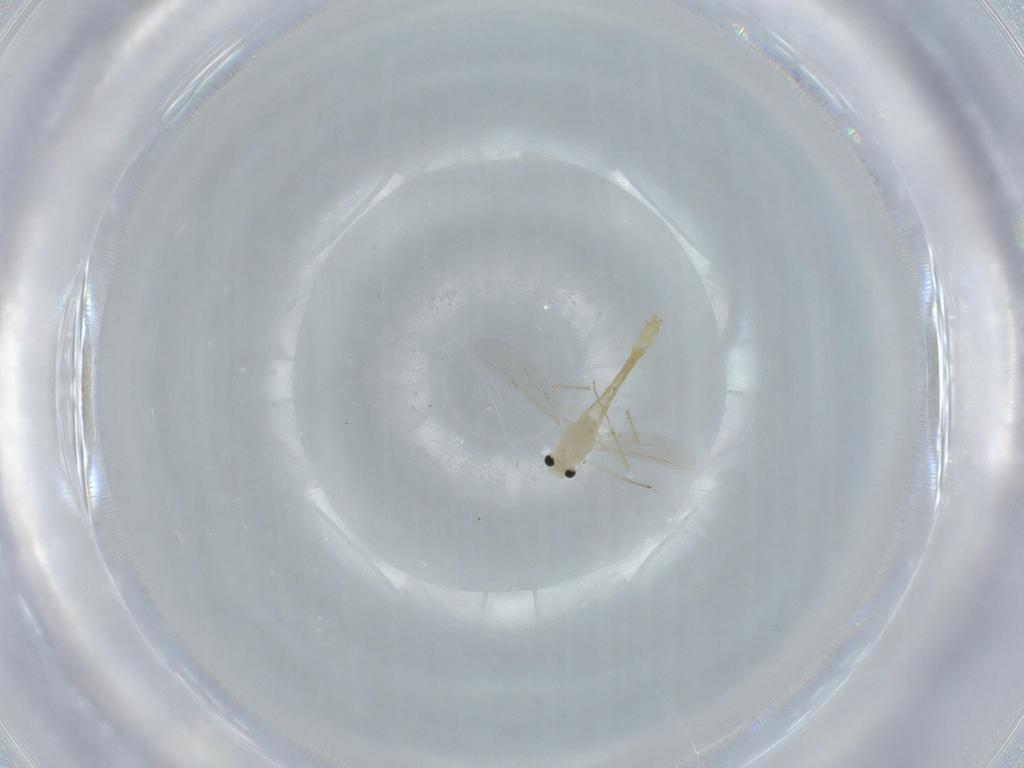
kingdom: Animalia
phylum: Arthropoda
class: Insecta
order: Diptera
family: Chironomidae
